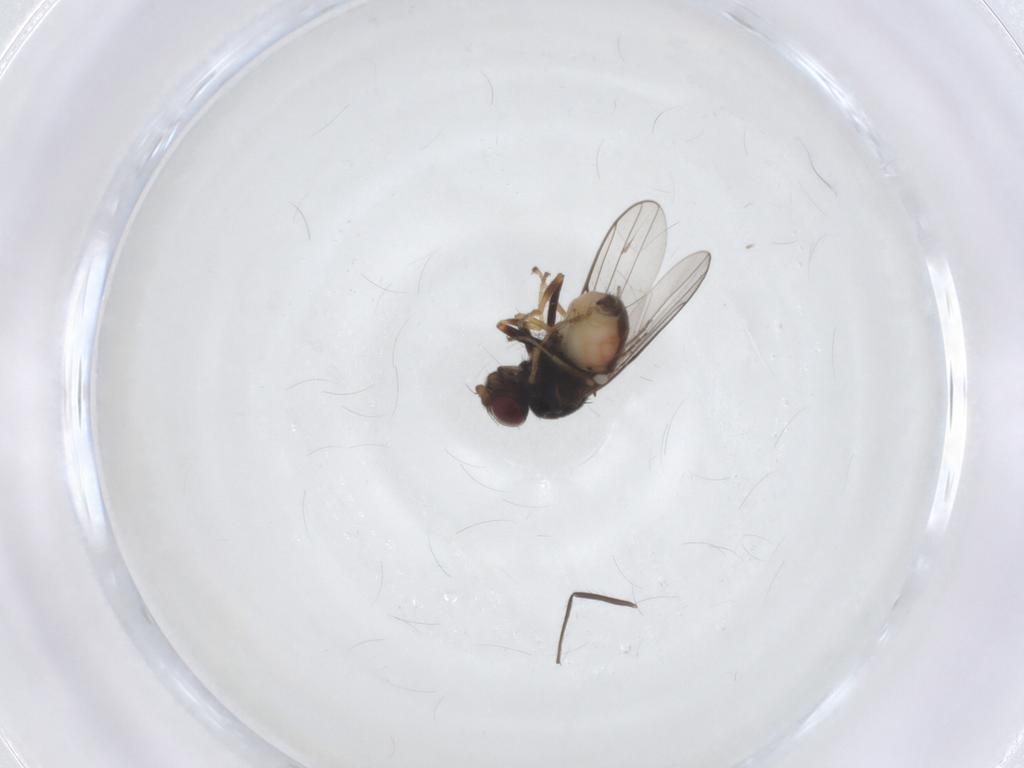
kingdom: Animalia
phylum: Arthropoda
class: Insecta
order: Diptera
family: Chloropidae
